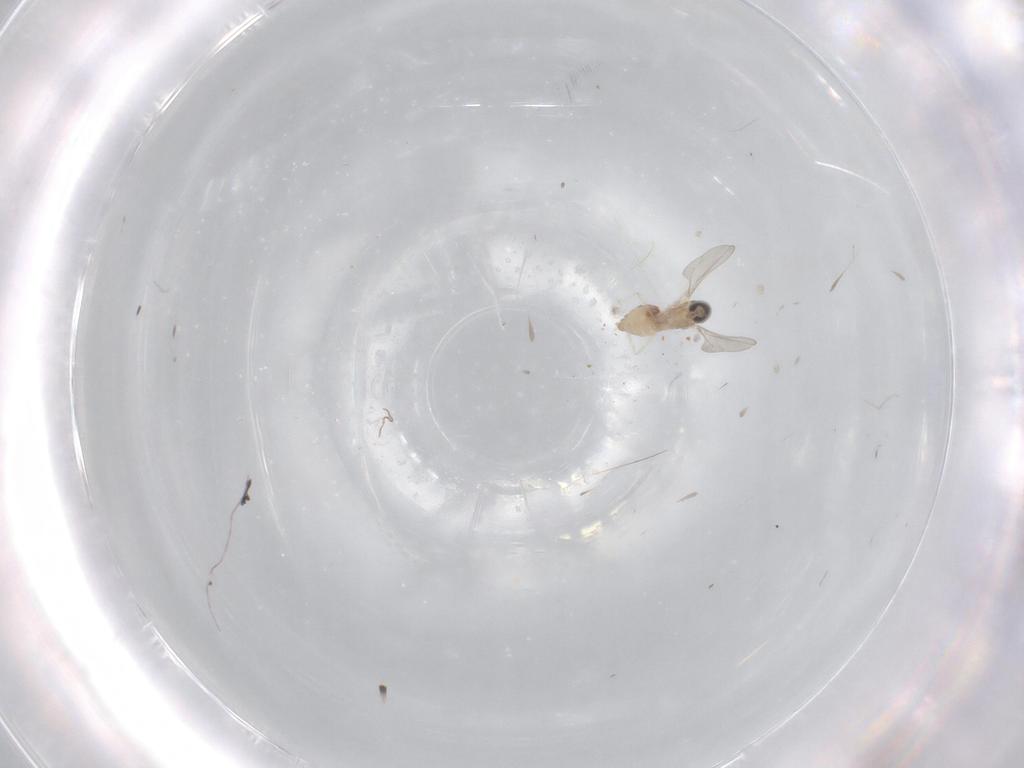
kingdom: Animalia
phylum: Arthropoda
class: Insecta
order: Diptera
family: Cecidomyiidae
